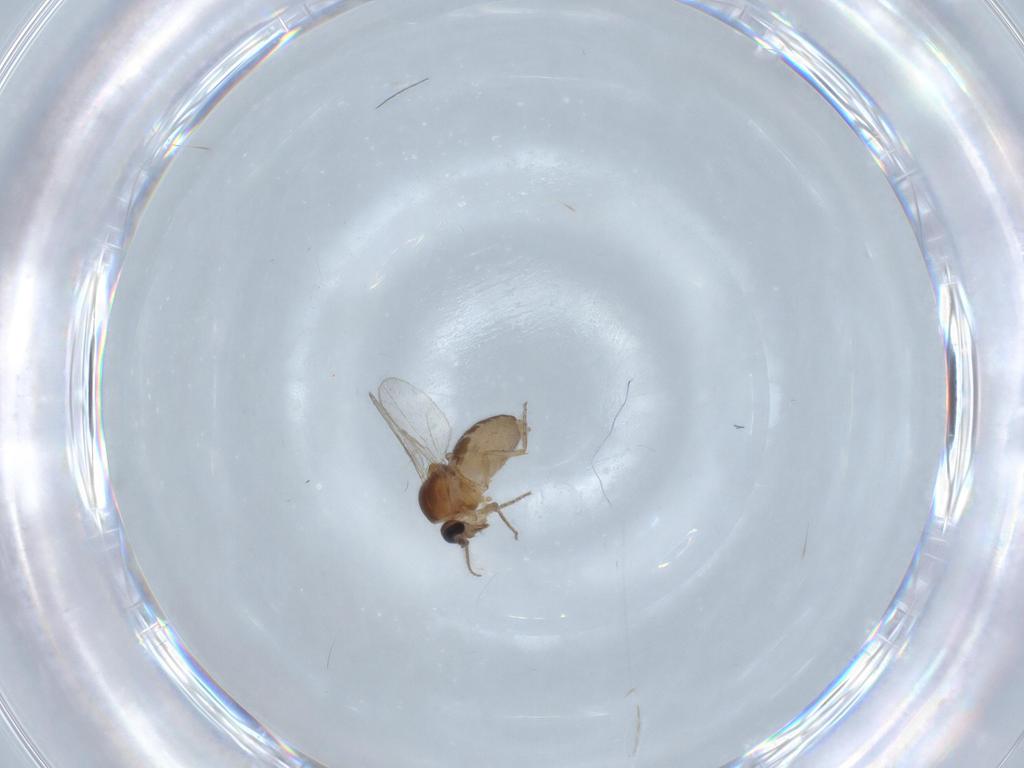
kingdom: Animalia
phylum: Arthropoda
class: Insecta
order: Diptera
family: Ceratopogonidae
